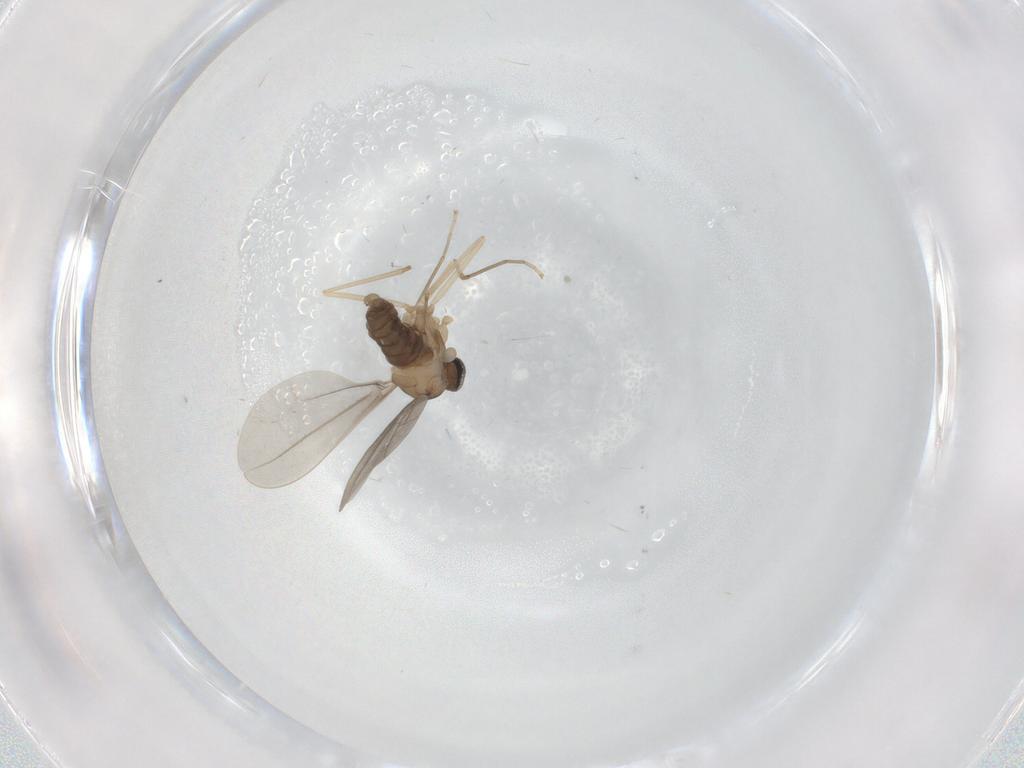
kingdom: Animalia
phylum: Arthropoda
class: Insecta
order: Diptera
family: Cecidomyiidae
